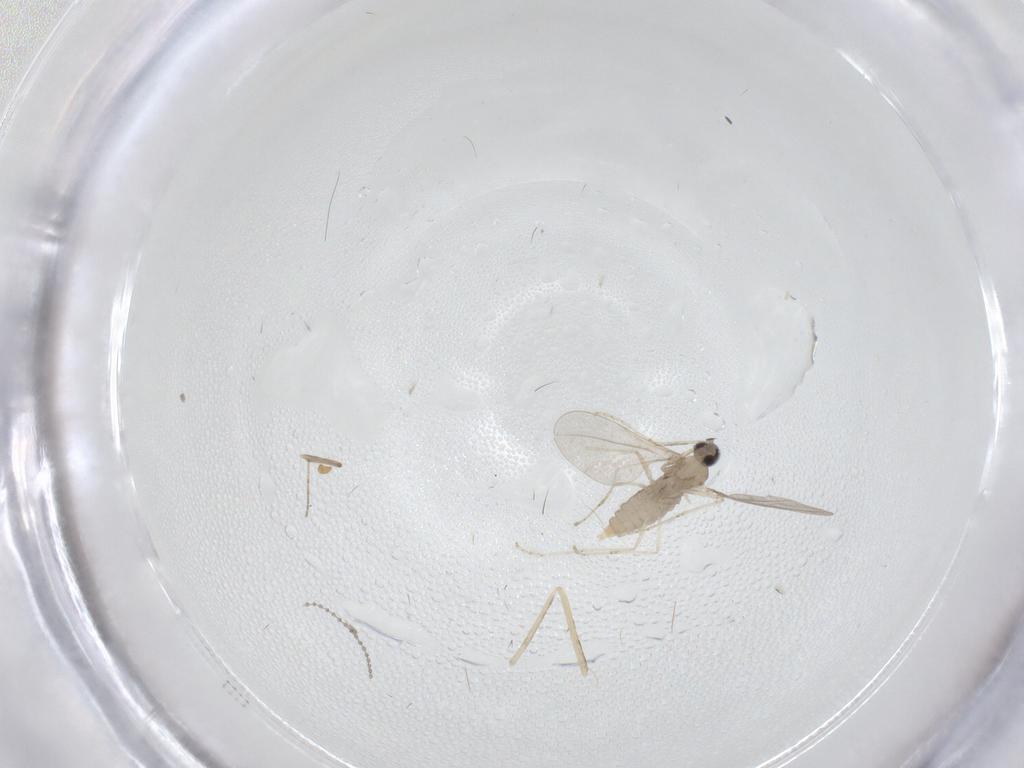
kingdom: Animalia
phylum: Arthropoda
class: Insecta
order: Diptera
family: Chironomidae
